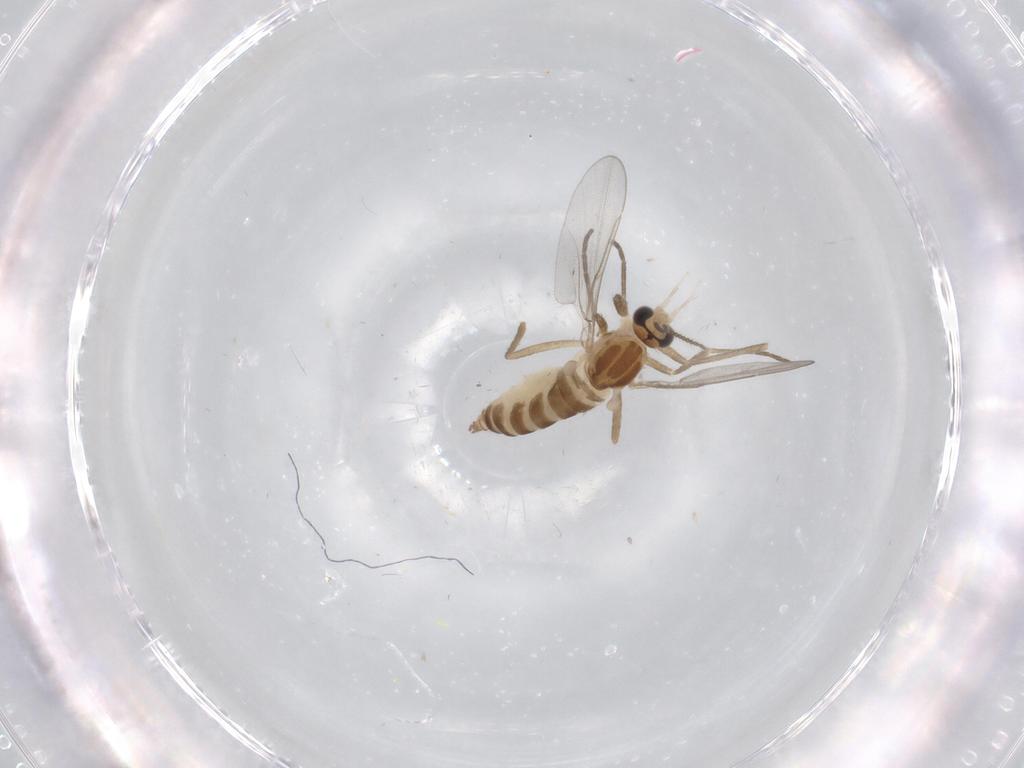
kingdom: Animalia
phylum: Arthropoda
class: Insecta
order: Diptera
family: Cecidomyiidae
